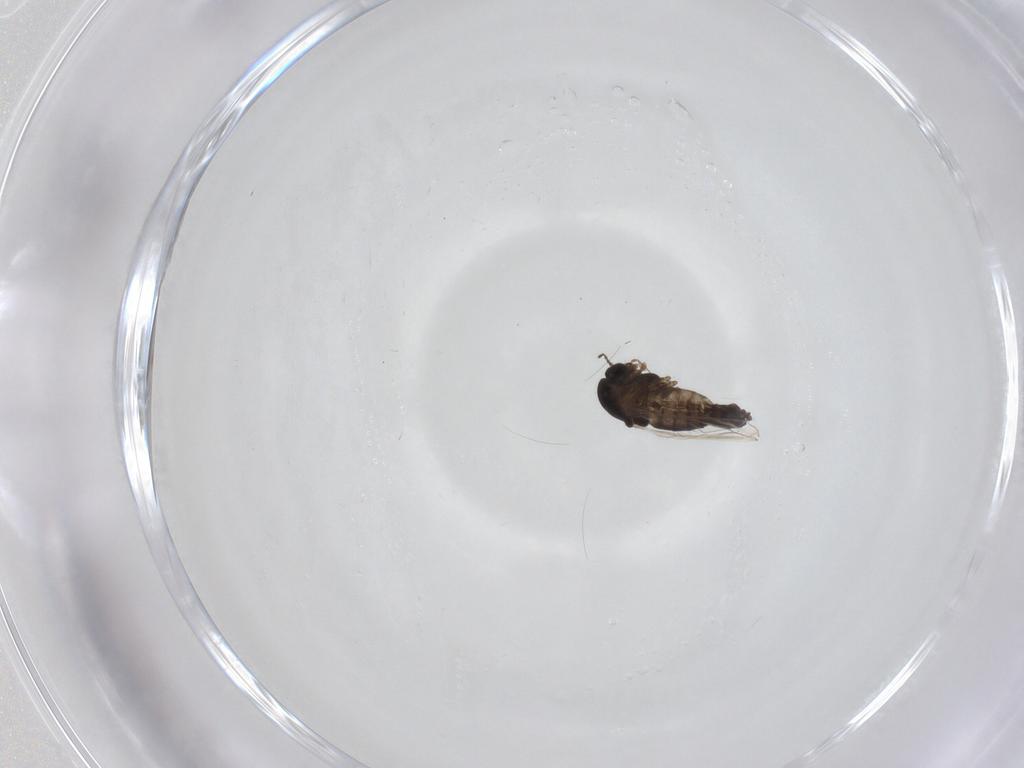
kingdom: Animalia
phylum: Arthropoda
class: Insecta
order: Diptera
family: Chironomidae
